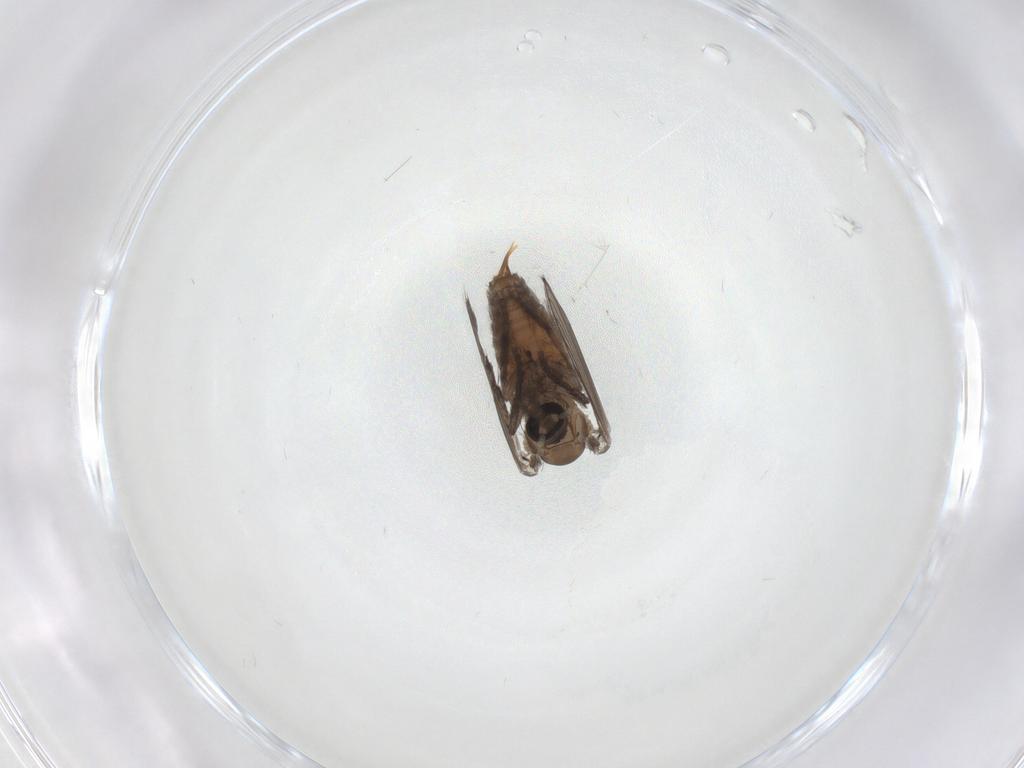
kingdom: Animalia
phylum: Arthropoda
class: Insecta
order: Diptera
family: Psychodidae
